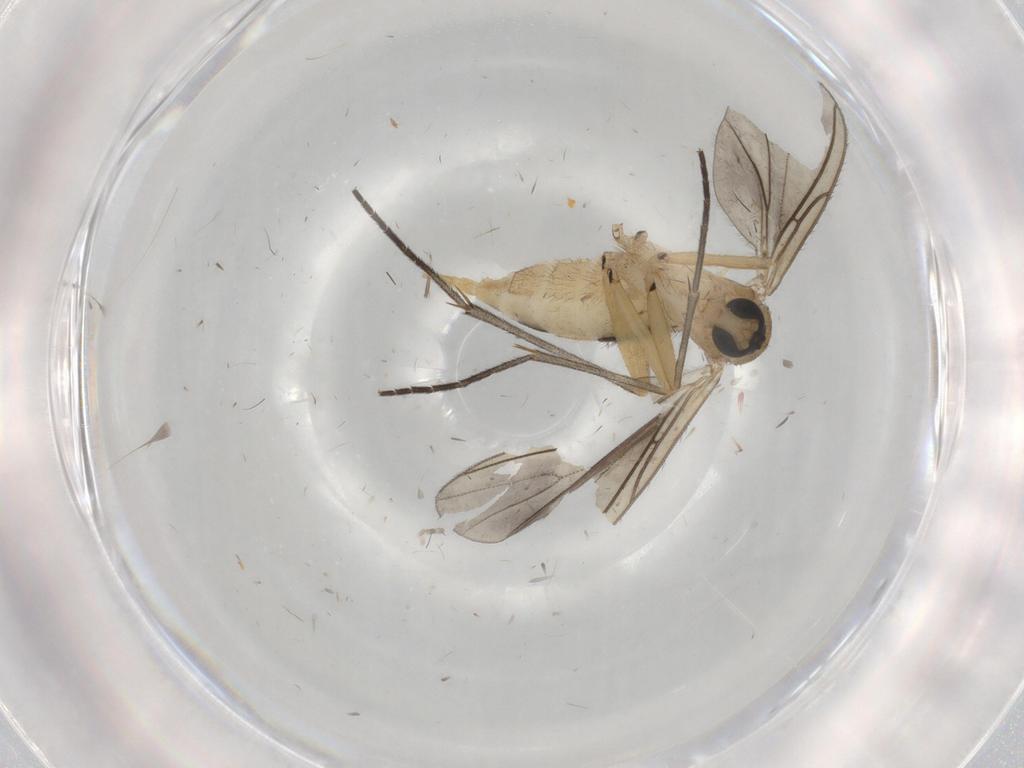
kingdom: Animalia
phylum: Arthropoda
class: Insecta
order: Diptera
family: Sciaridae
